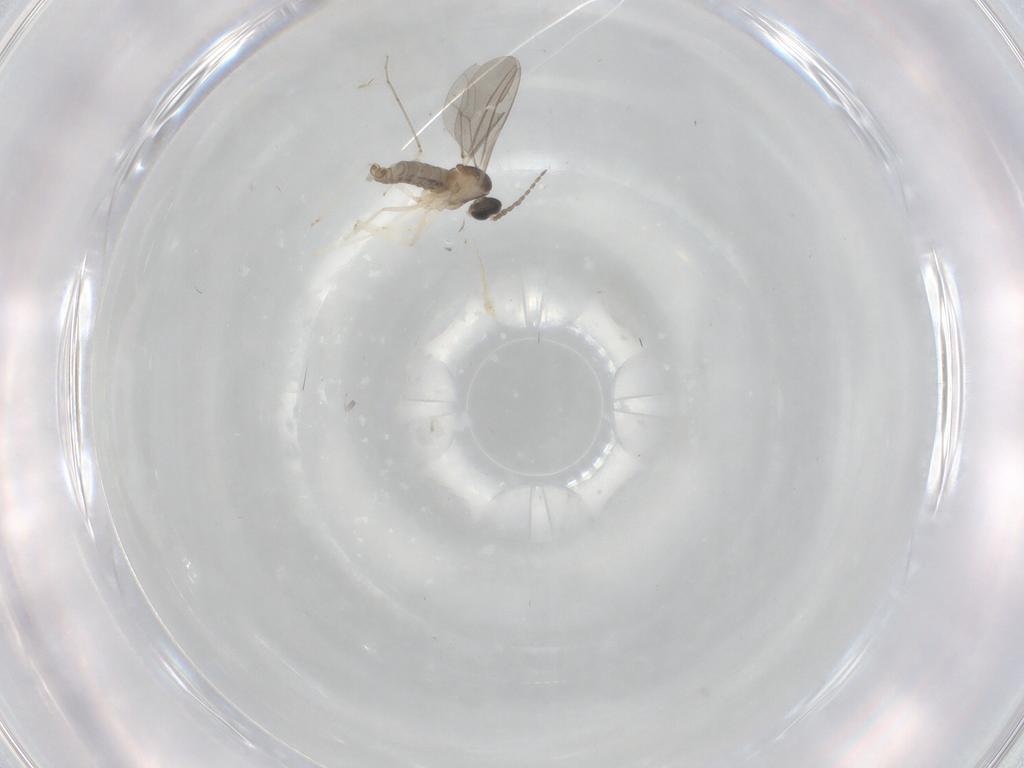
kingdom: Animalia
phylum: Arthropoda
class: Insecta
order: Diptera
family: Cecidomyiidae
